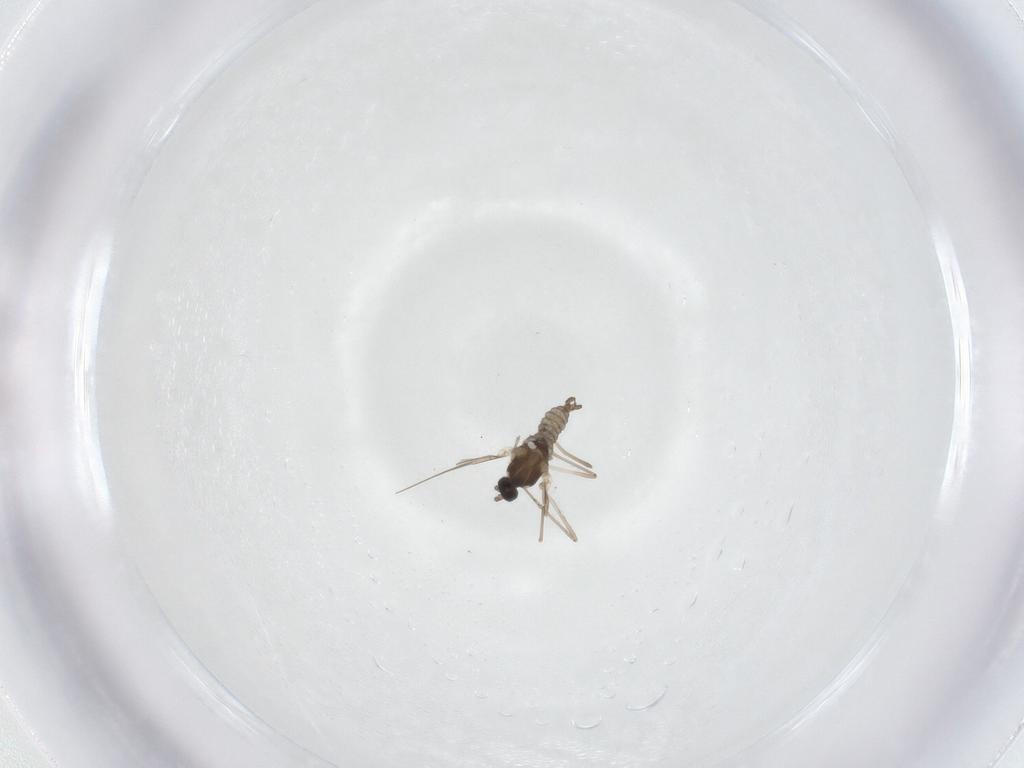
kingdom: Animalia
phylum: Arthropoda
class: Insecta
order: Diptera
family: Cecidomyiidae
